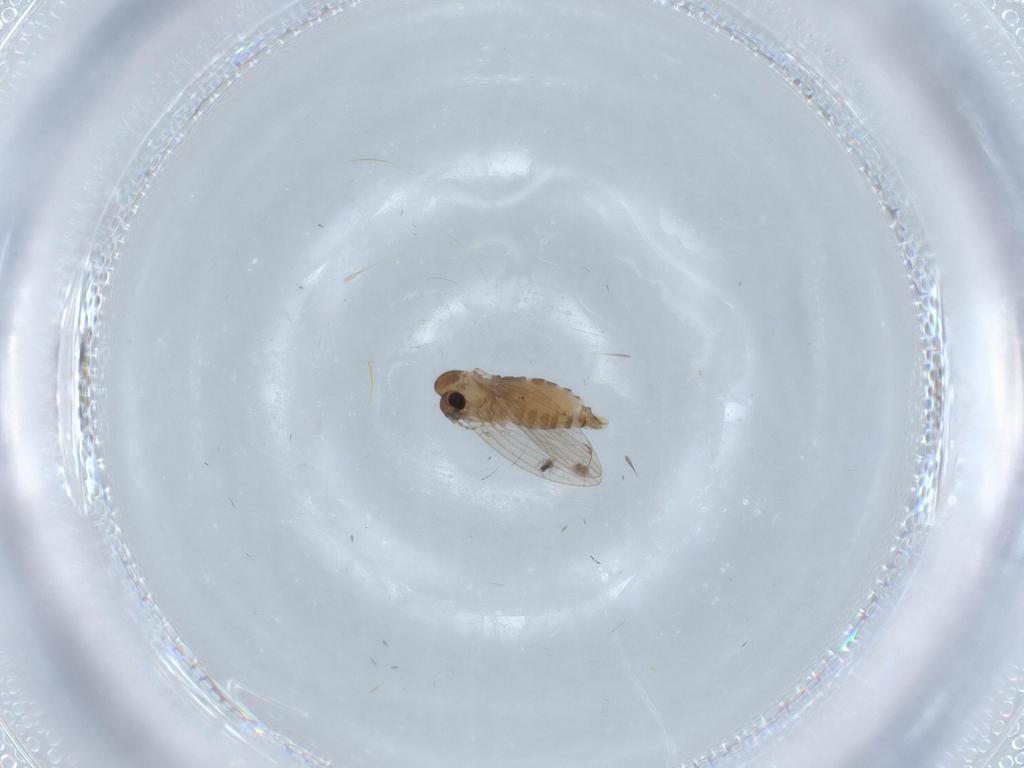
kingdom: Animalia
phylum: Arthropoda
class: Insecta
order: Diptera
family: Psychodidae
